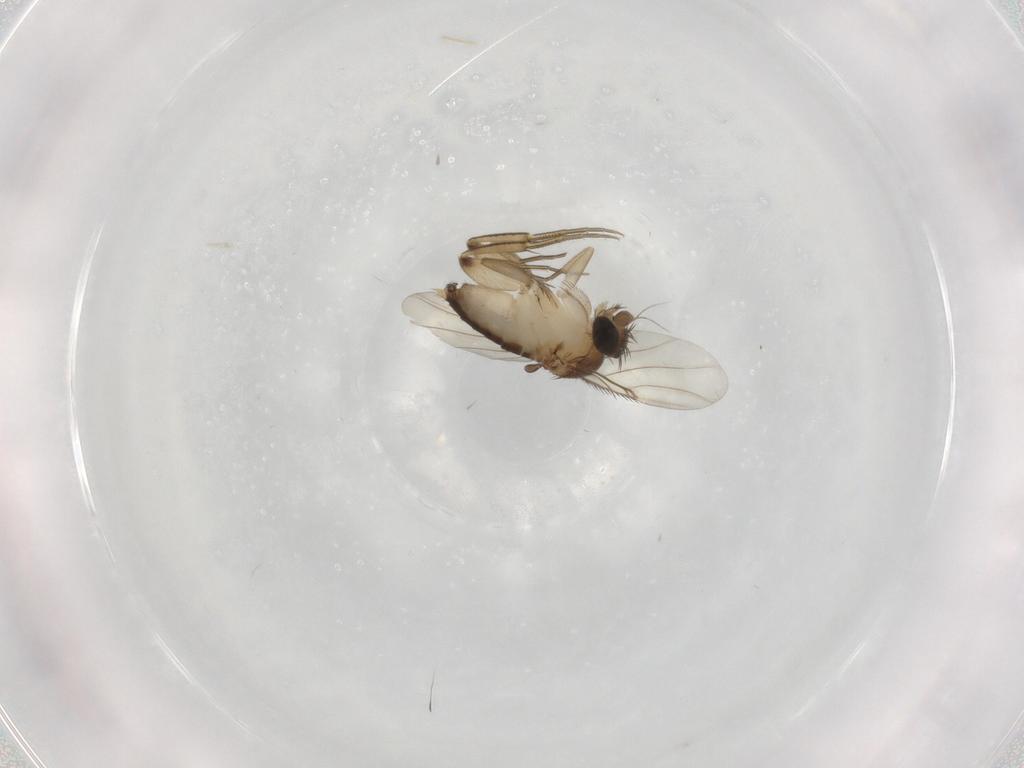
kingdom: Animalia
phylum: Arthropoda
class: Insecta
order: Diptera
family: Phoridae
